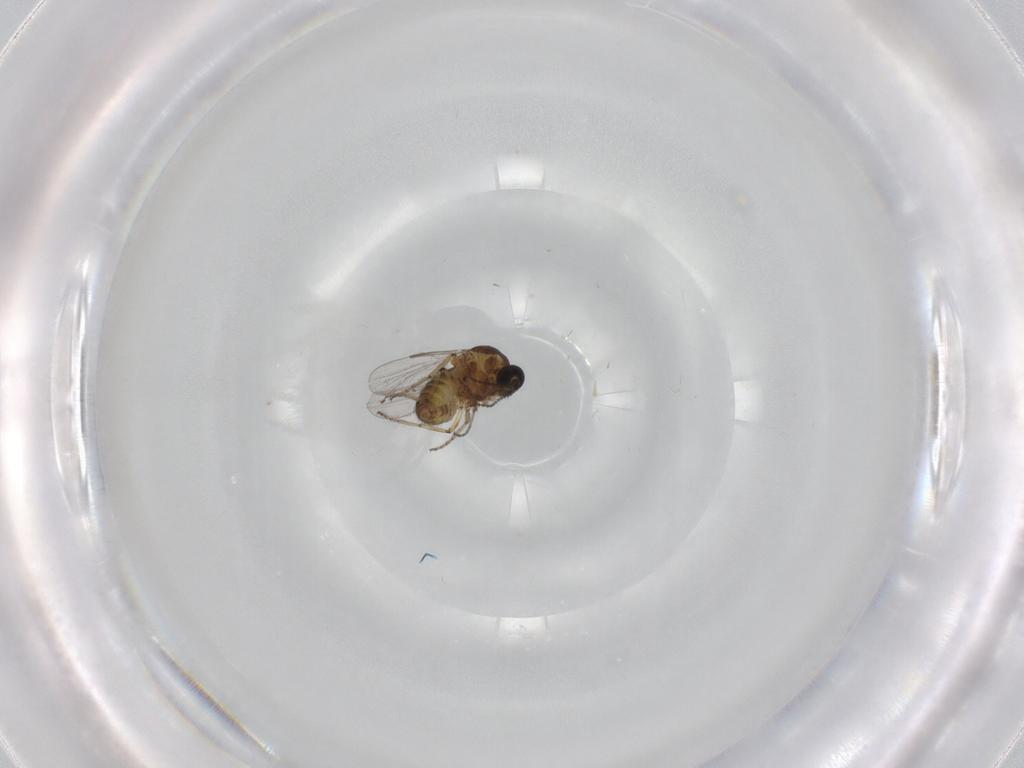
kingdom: Animalia
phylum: Arthropoda
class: Insecta
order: Diptera
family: Ceratopogonidae
